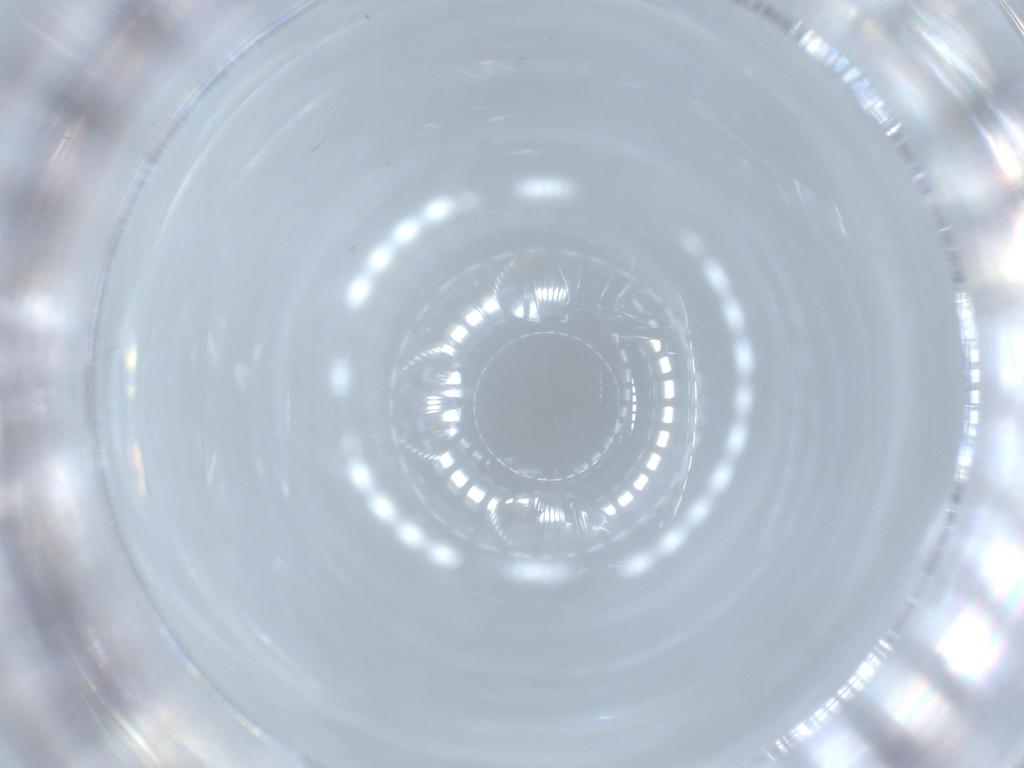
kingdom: Animalia
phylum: Arthropoda
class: Insecta
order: Diptera
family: Cecidomyiidae
